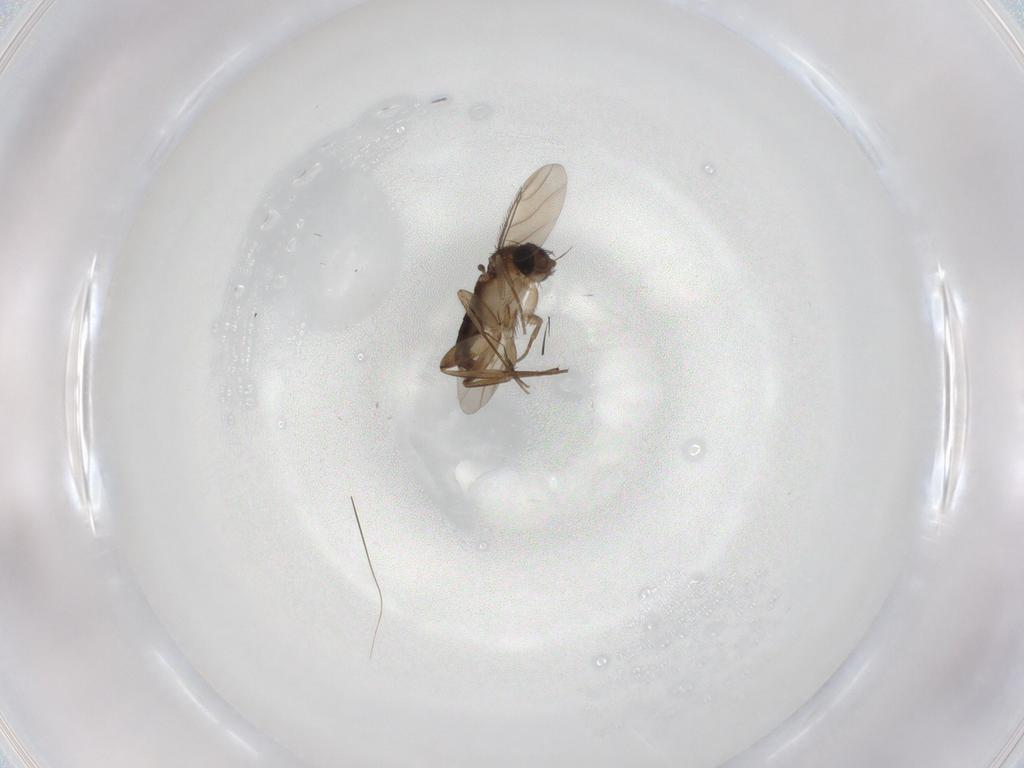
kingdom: Animalia
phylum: Arthropoda
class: Insecta
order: Diptera
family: Phoridae
